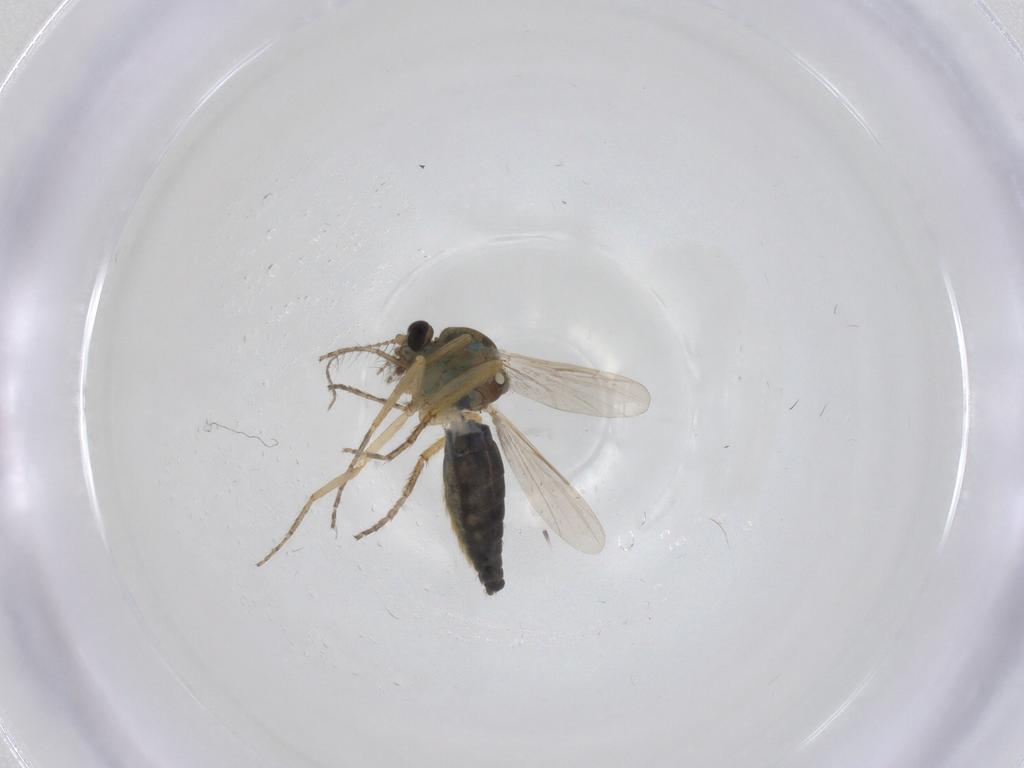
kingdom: Animalia
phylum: Arthropoda
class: Insecta
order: Diptera
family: Ceratopogonidae
